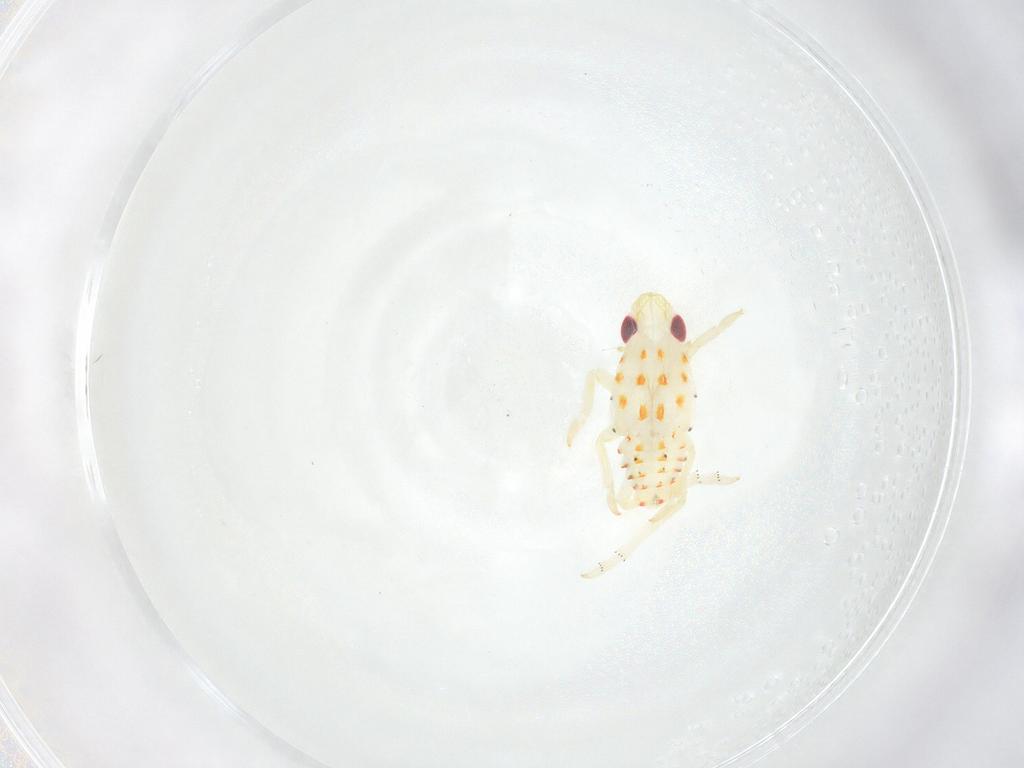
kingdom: Animalia
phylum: Arthropoda
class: Insecta
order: Hemiptera
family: Tropiduchidae
